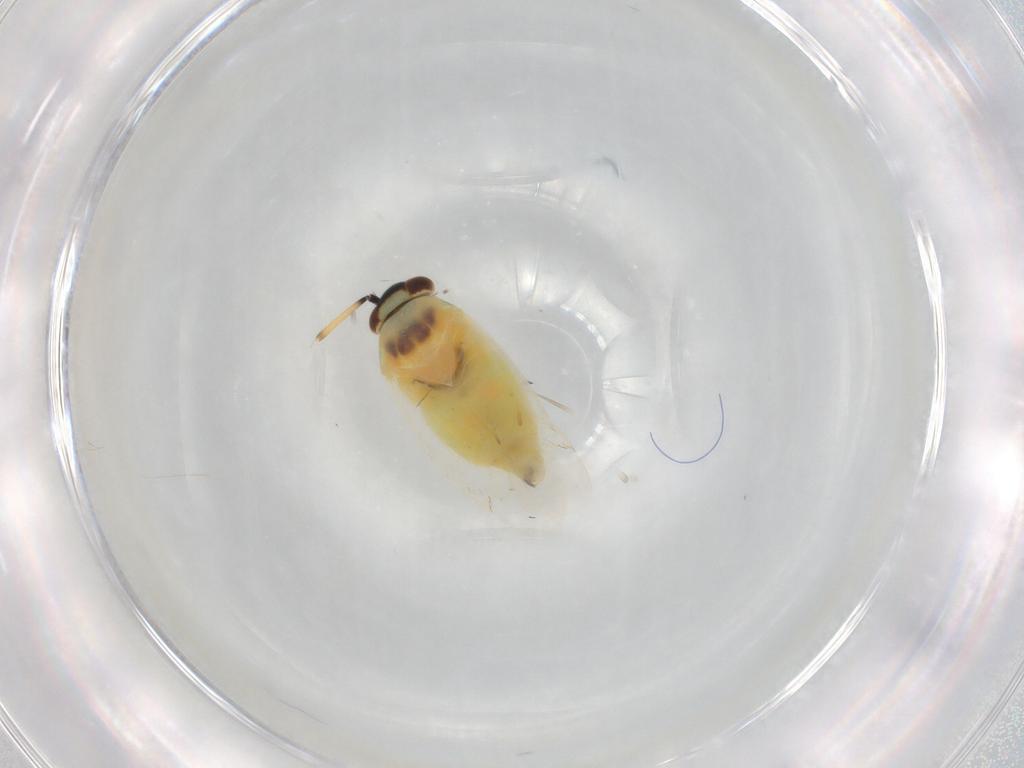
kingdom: Animalia
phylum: Arthropoda
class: Insecta
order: Hemiptera
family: Miridae
